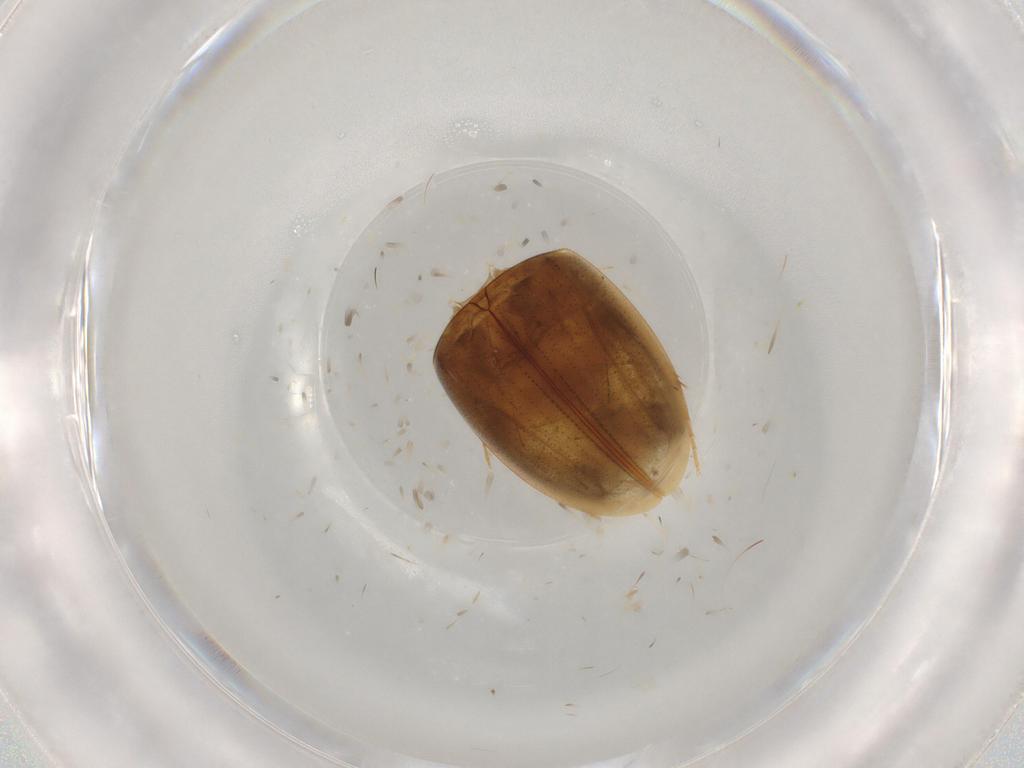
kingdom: Animalia
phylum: Arthropoda
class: Insecta
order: Coleoptera
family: Hydrophilidae
